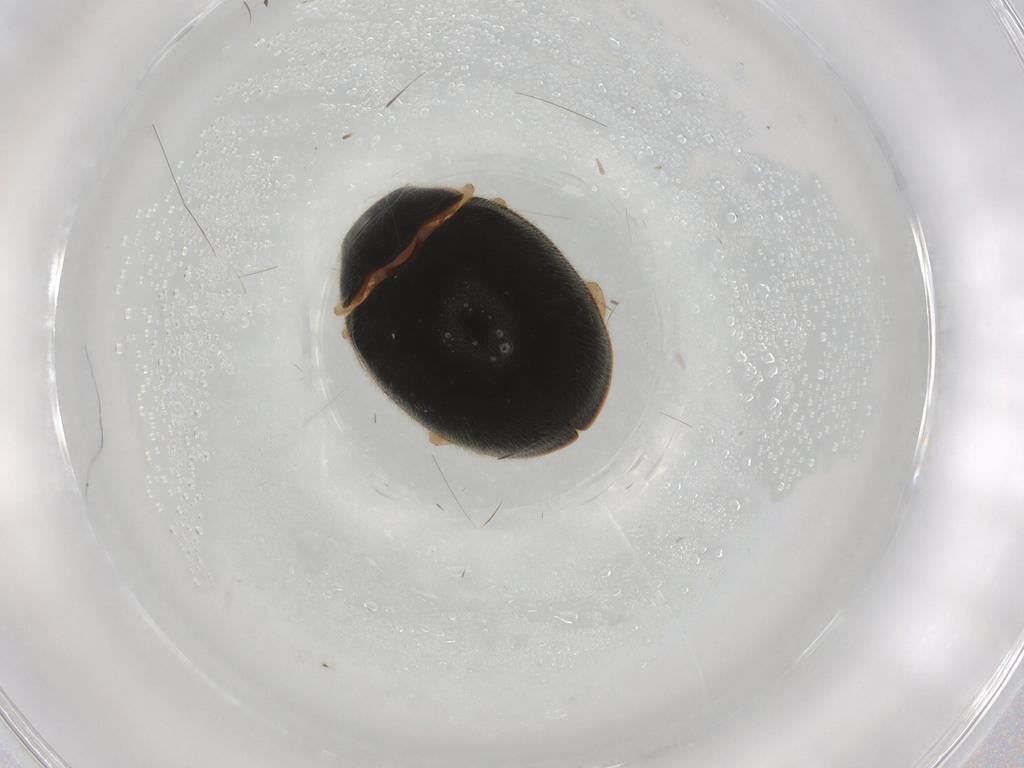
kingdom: Animalia
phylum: Arthropoda
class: Insecta
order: Coleoptera
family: Coccinellidae
